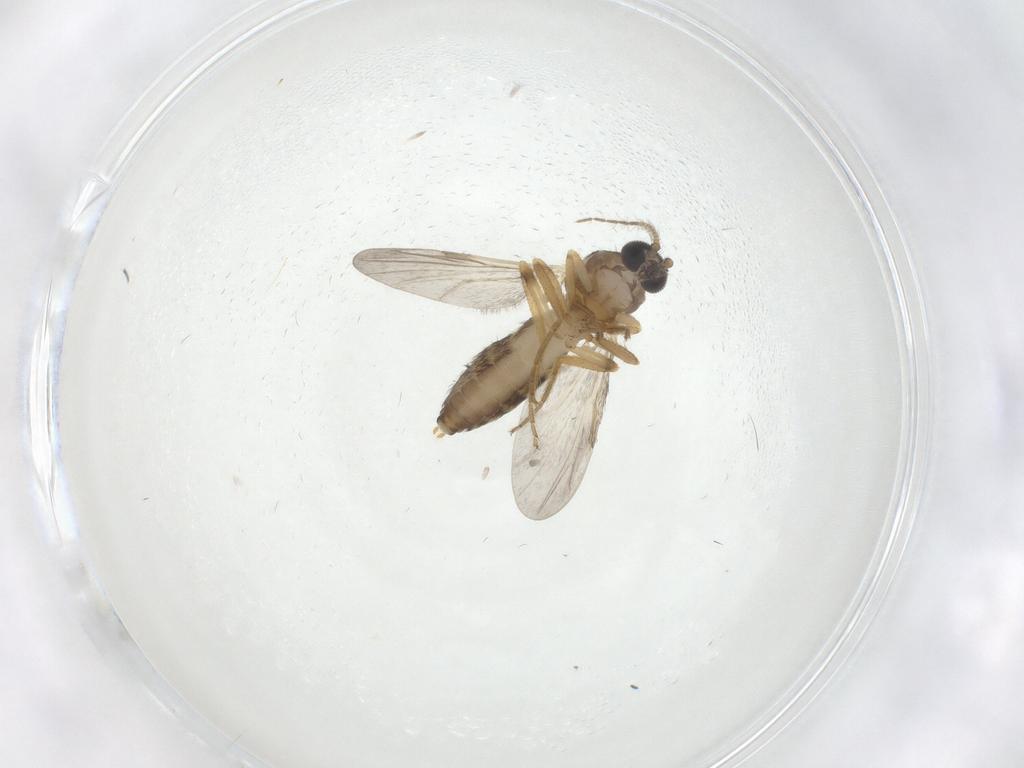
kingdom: Animalia
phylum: Arthropoda
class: Insecta
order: Diptera
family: Ceratopogonidae
